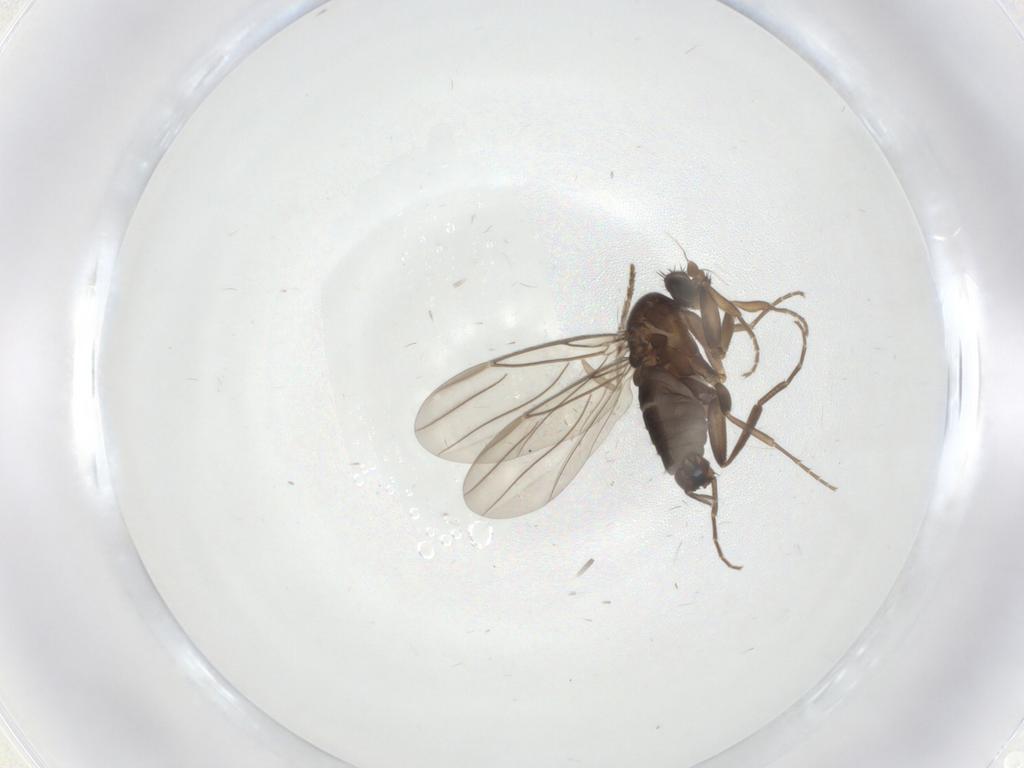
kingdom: Animalia
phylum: Arthropoda
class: Insecta
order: Diptera
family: Psychodidae
